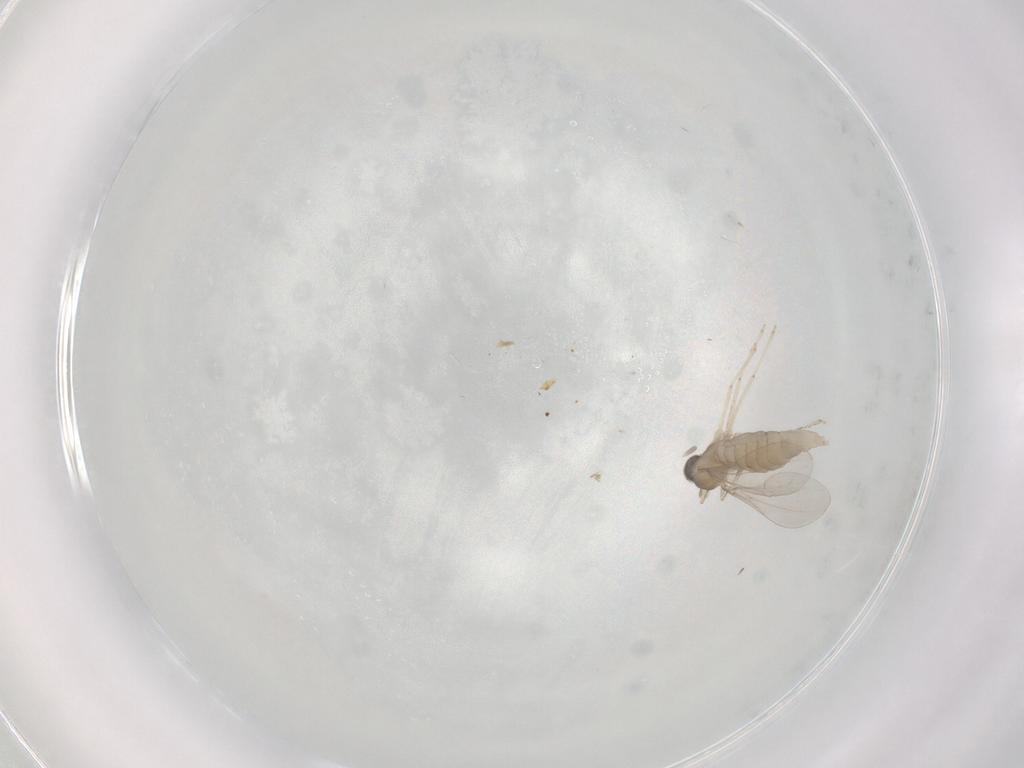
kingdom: Animalia
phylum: Arthropoda
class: Insecta
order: Diptera
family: Cecidomyiidae
